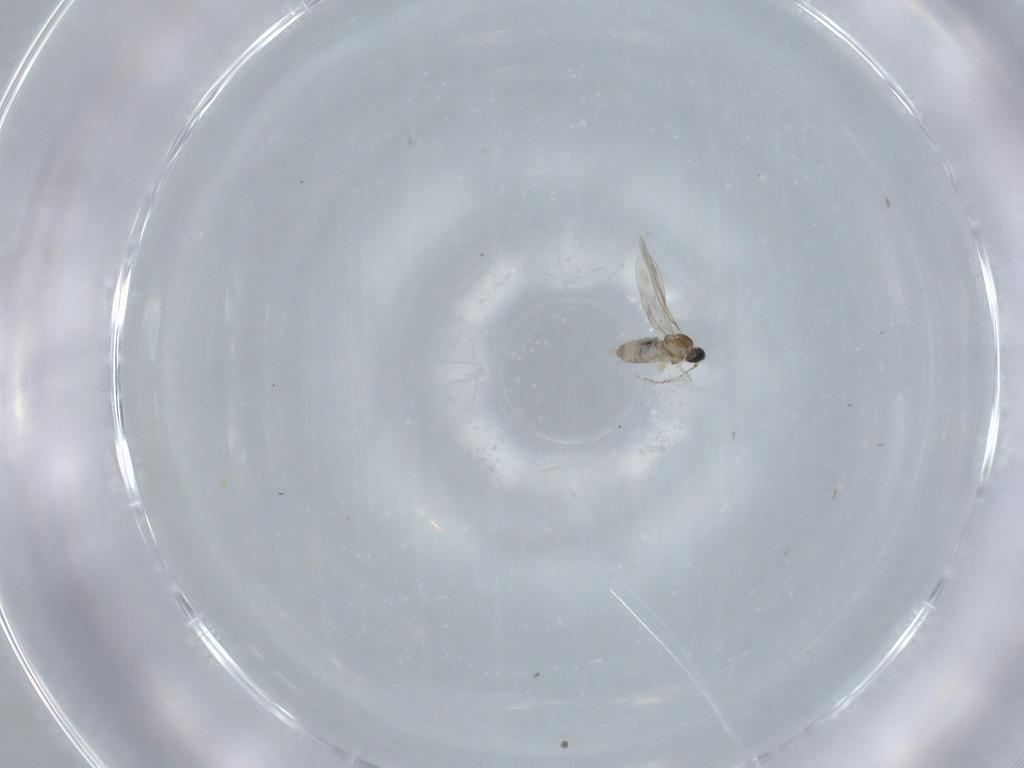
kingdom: Animalia
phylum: Arthropoda
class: Insecta
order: Diptera
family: Cecidomyiidae
